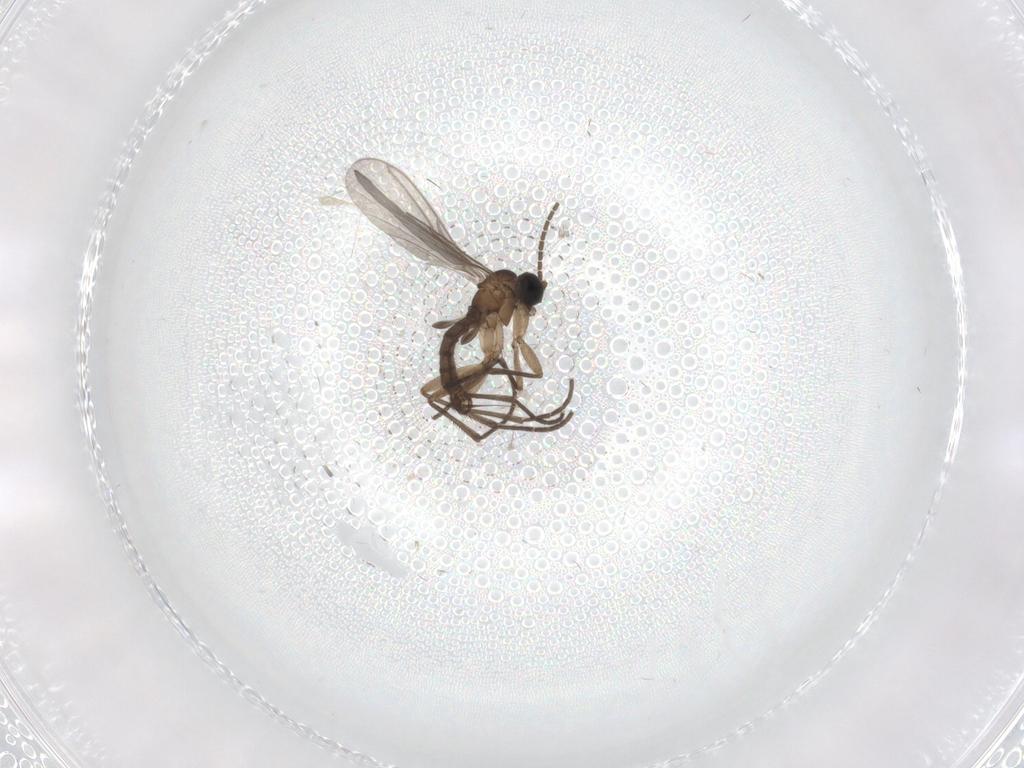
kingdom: Animalia
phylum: Arthropoda
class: Insecta
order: Diptera
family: Sciaridae
